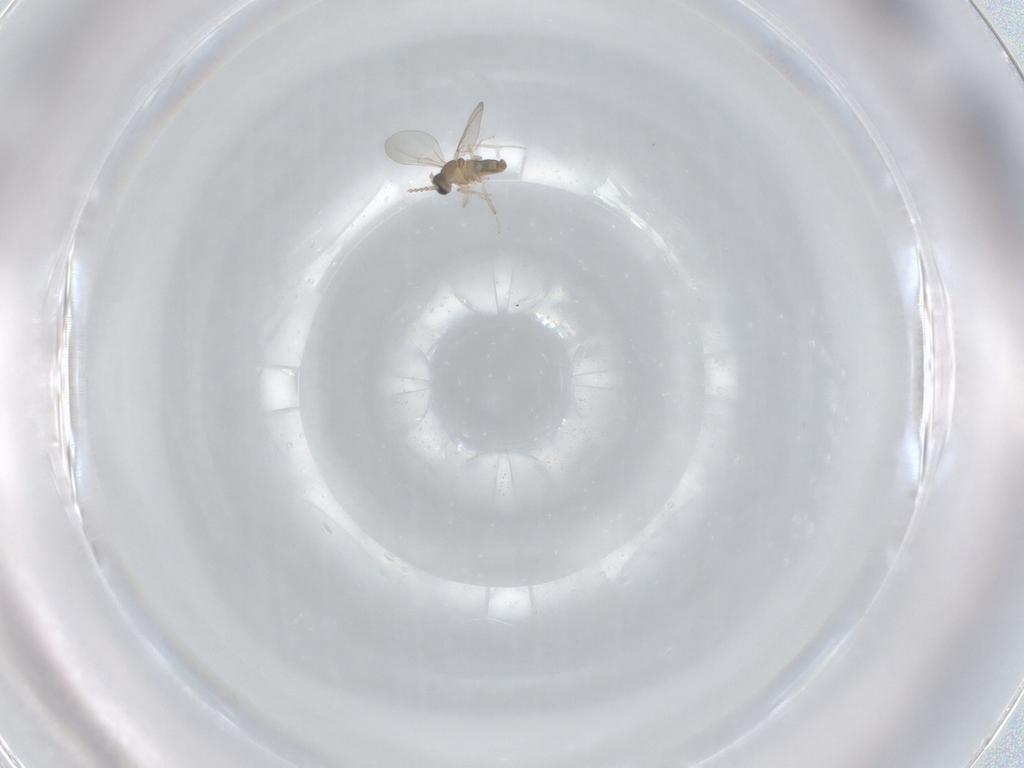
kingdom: Animalia
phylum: Arthropoda
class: Insecta
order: Diptera
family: Cecidomyiidae
